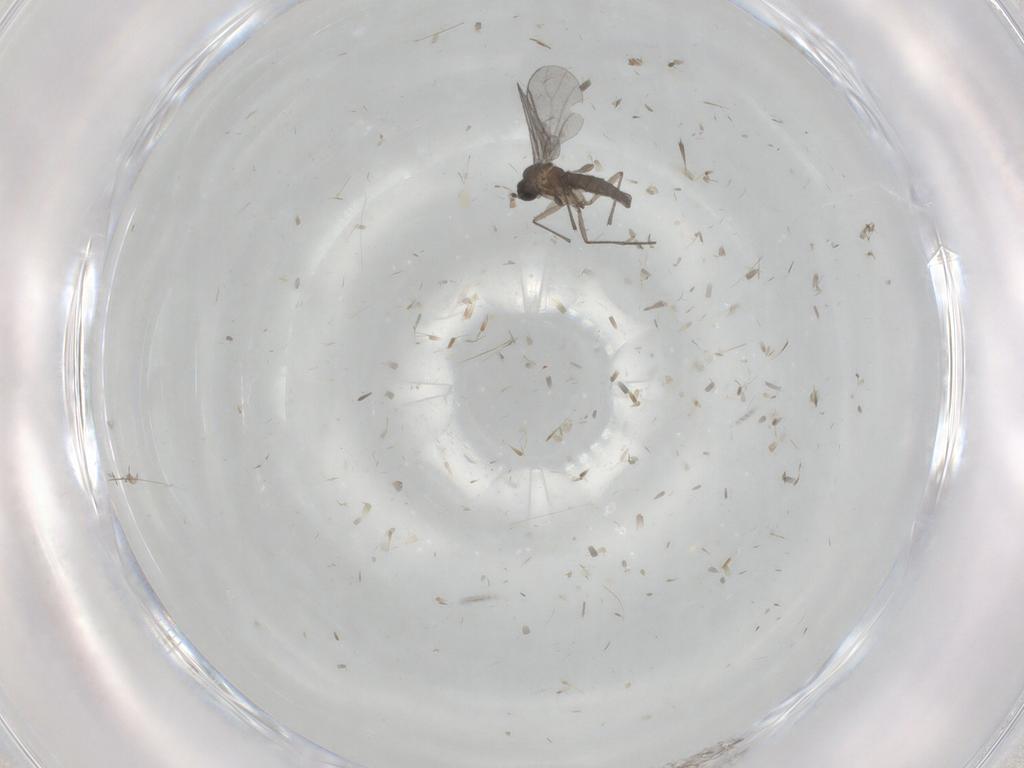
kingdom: Animalia
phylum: Arthropoda
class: Insecta
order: Diptera
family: Sciaridae
